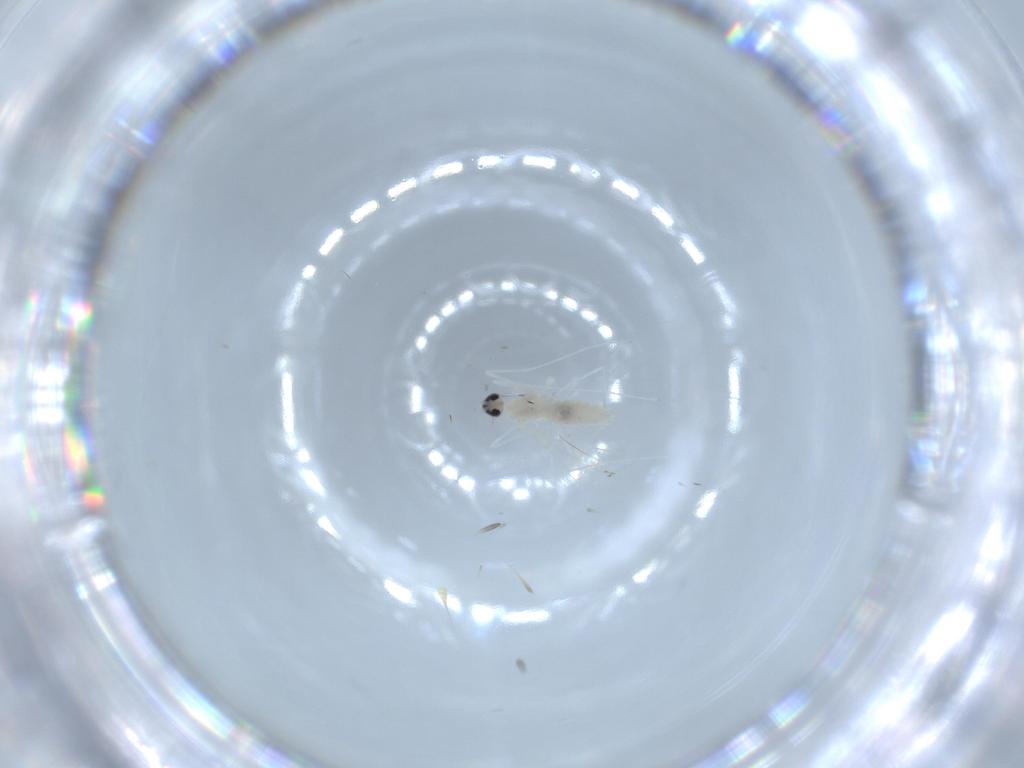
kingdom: Animalia
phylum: Arthropoda
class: Insecta
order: Diptera
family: Cecidomyiidae
